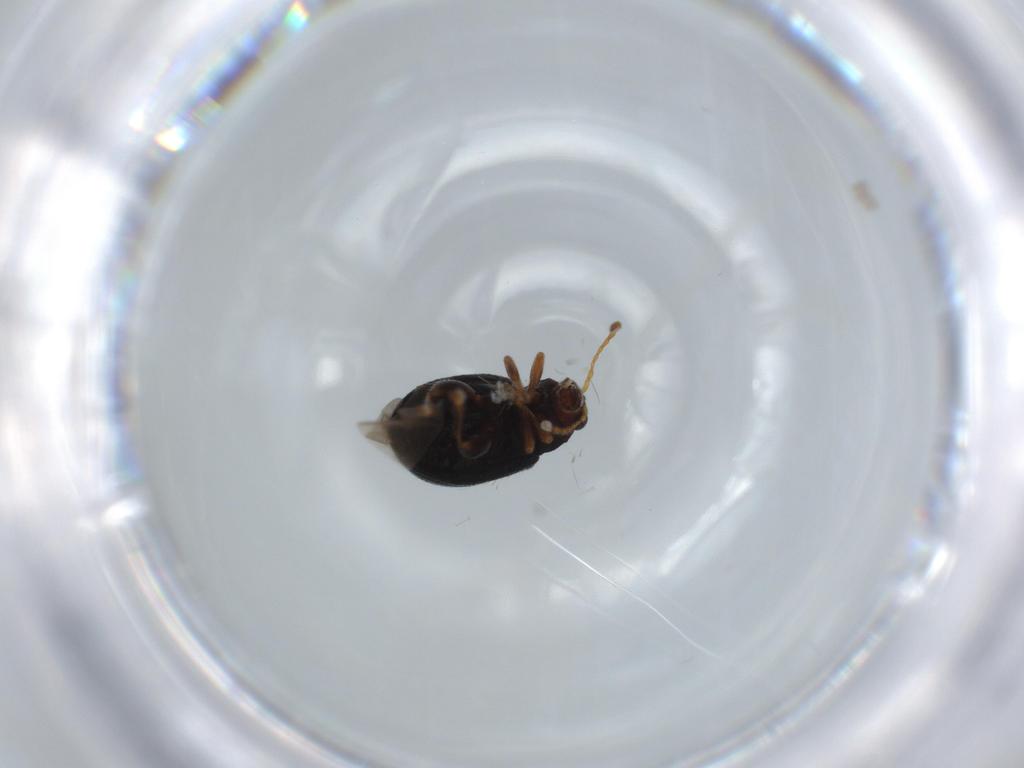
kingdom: Animalia
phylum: Arthropoda
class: Insecta
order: Coleoptera
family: Chrysomelidae
